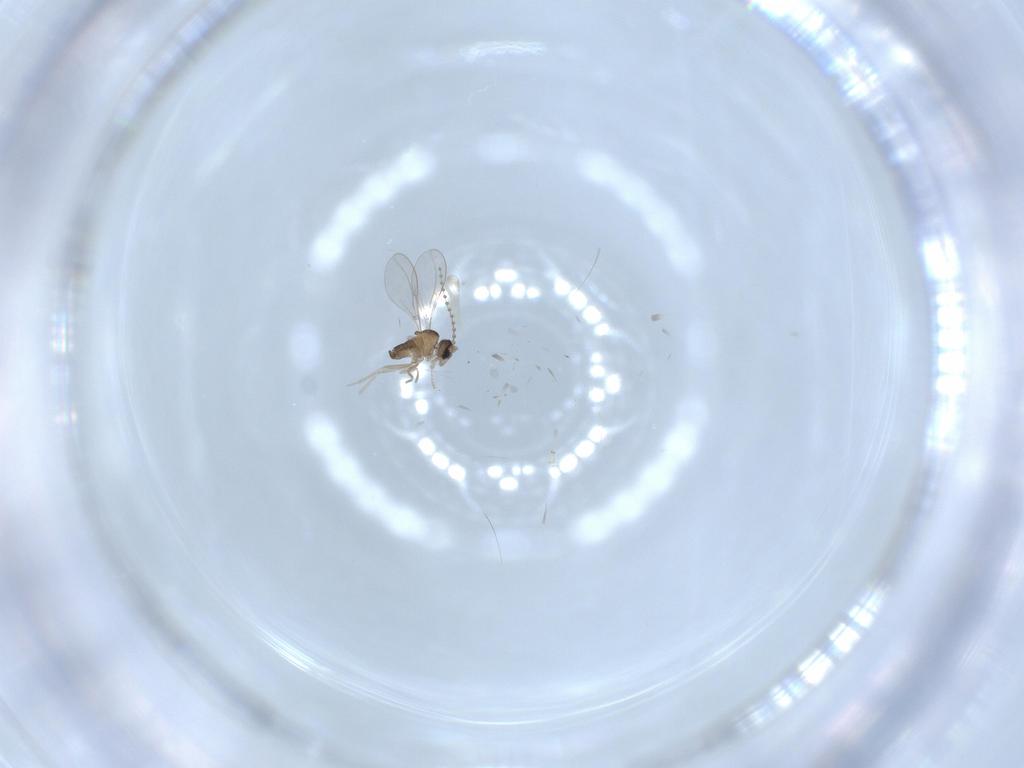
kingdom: Animalia
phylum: Arthropoda
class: Insecta
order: Diptera
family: Cecidomyiidae
